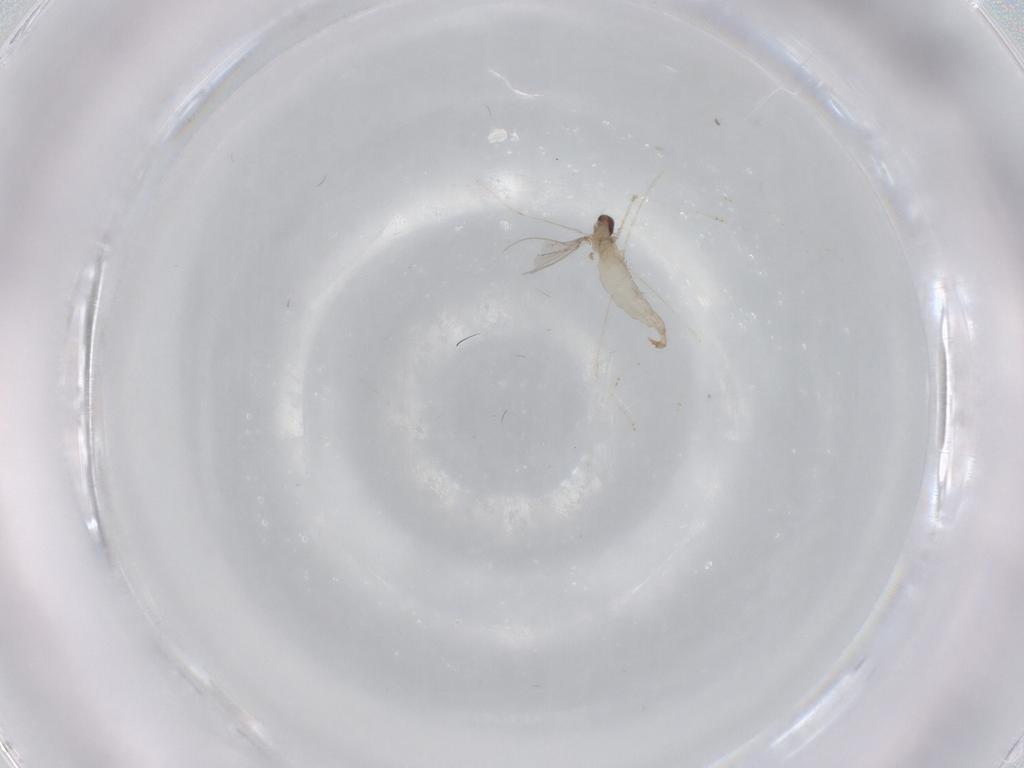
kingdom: Animalia
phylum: Arthropoda
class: Insecta
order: Diptera
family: Cecidomyiidae
